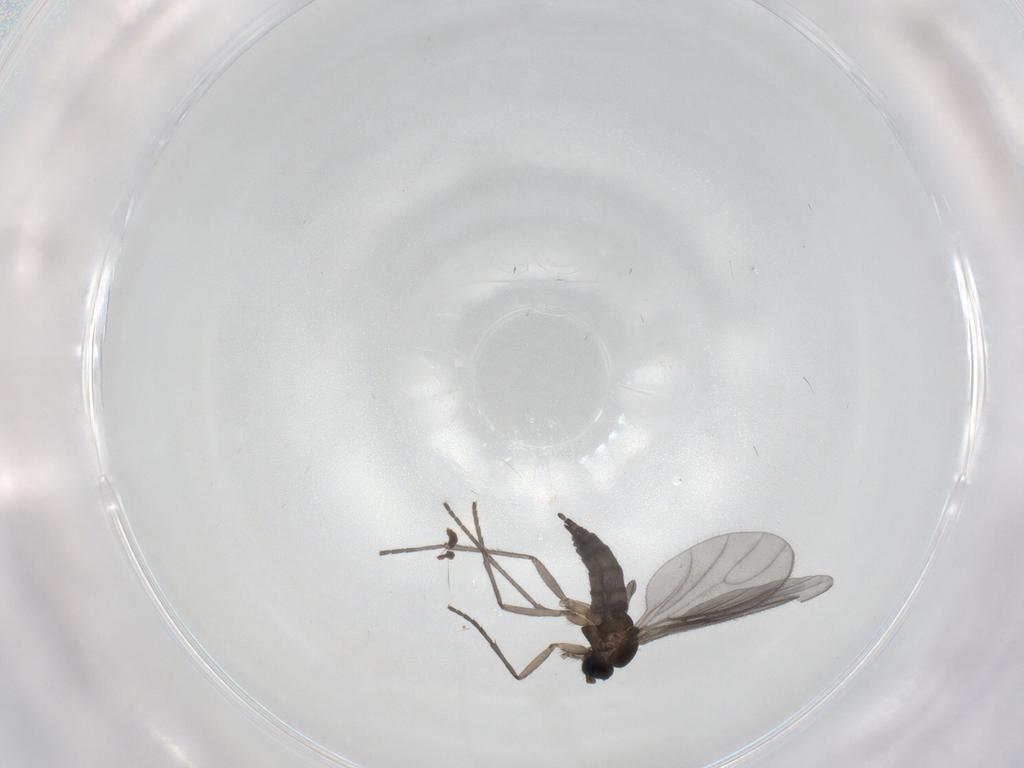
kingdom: Animalia
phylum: Arthropoda
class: Insecta
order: Diptera
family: Sciaridae
